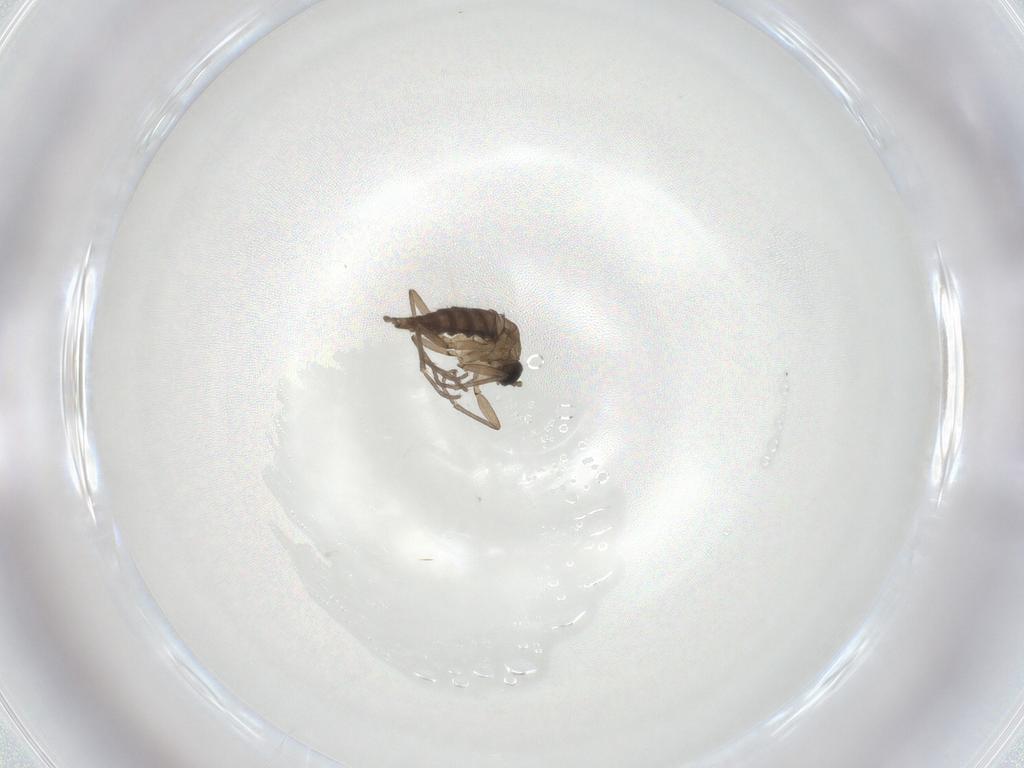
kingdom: Animalia
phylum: Arthropoda
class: Insecta
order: Diptera
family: Sciaridae
